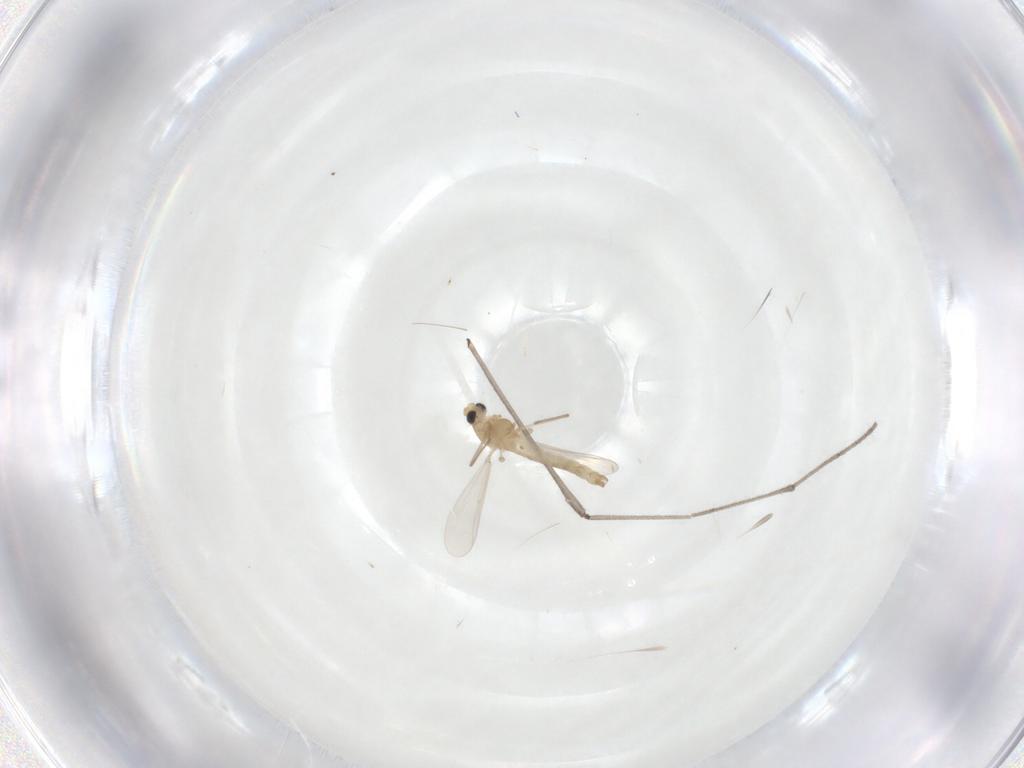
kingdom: Animalia
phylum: Arthropoda
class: Insecta
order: Diptera
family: Limoniidae
